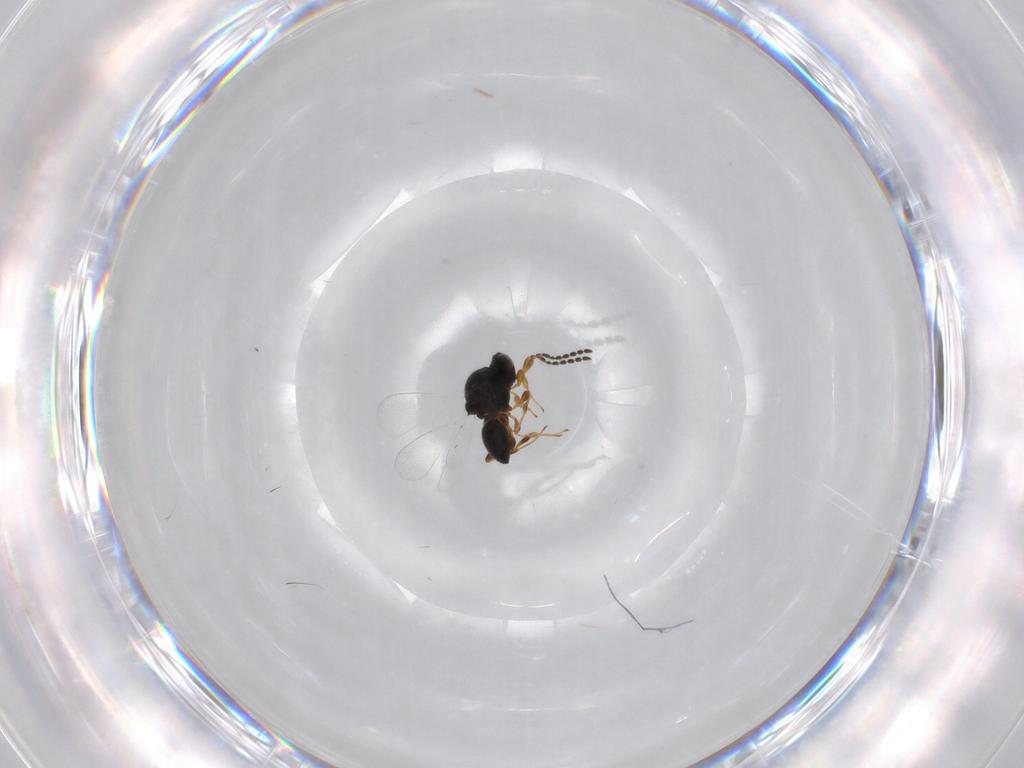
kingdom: Animalia
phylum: Arthropoda
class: Insecta
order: Hymenoptera
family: Platygastridae
